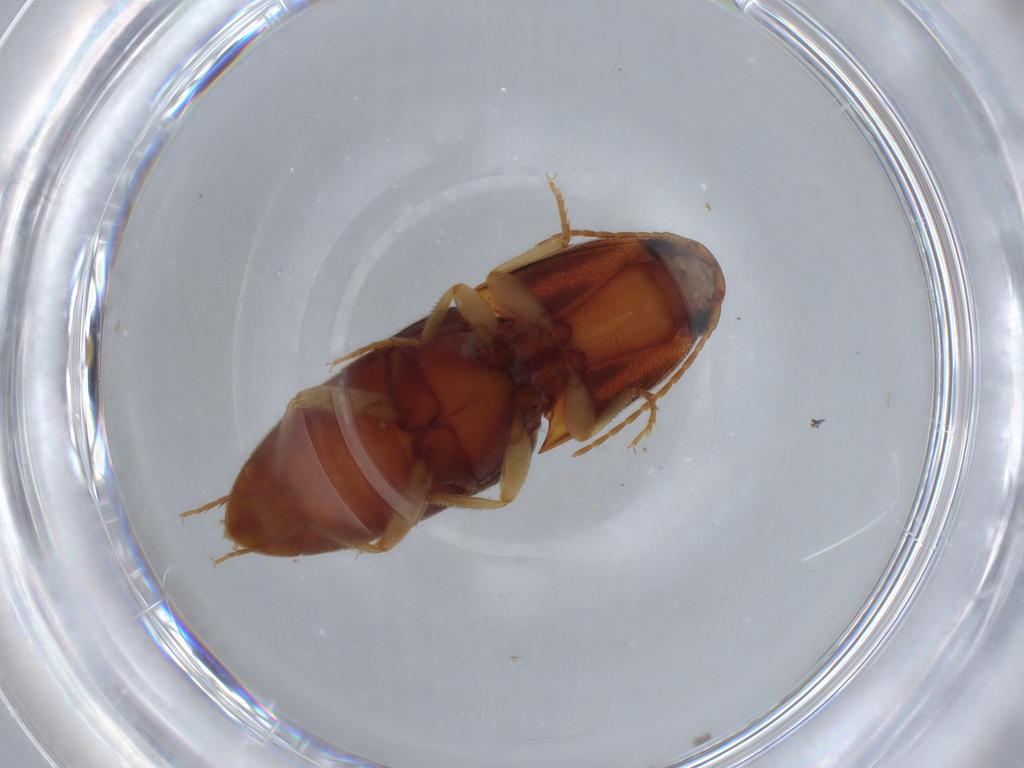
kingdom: Animalia
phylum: Arthropoda
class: Insecta
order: Coleoptera
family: Elateridae
